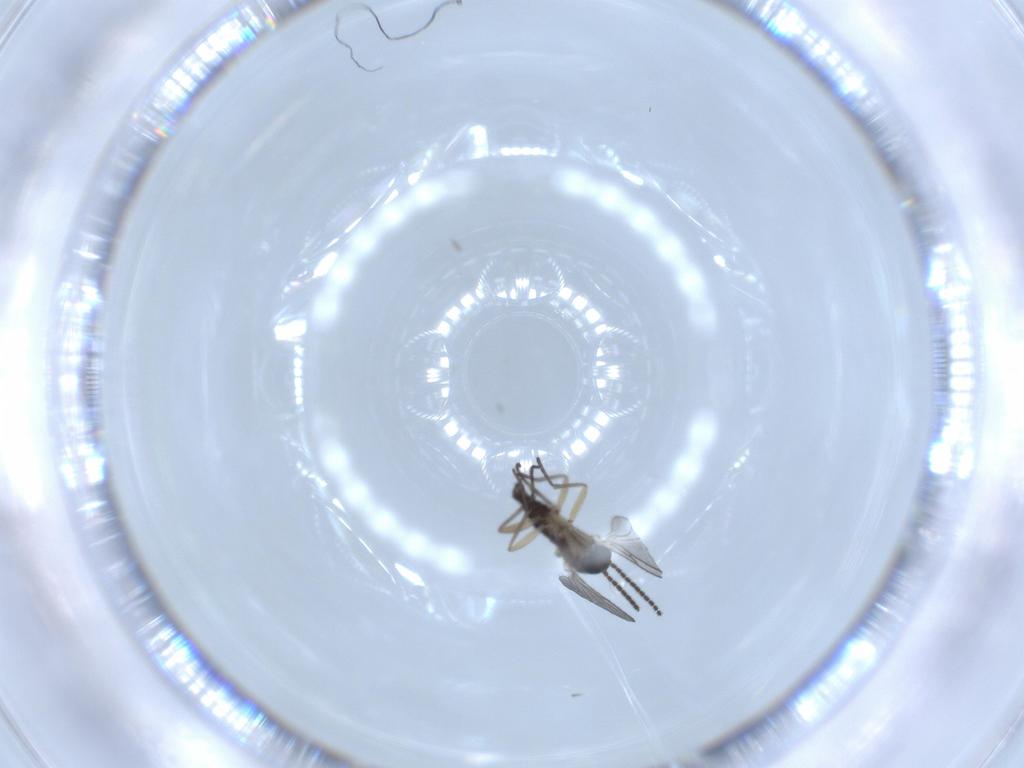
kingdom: Animalia
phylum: Arthropoda
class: Insecta
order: Diptera
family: Sciaridae
